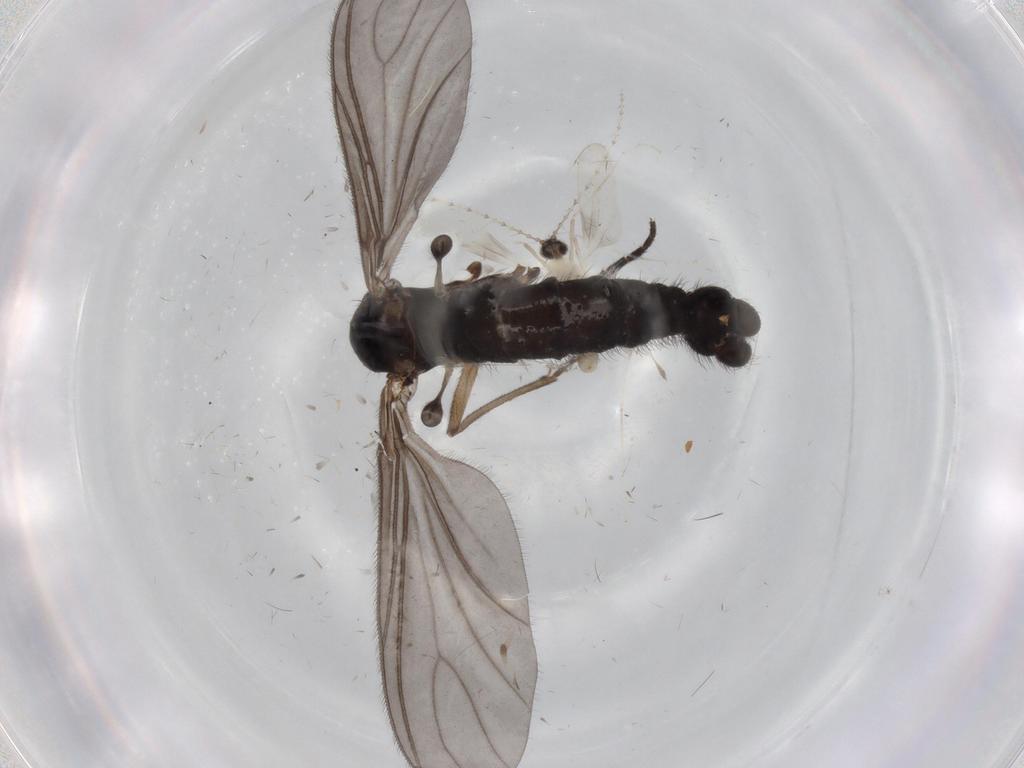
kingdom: Animalia
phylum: Arthropoda
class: Insecta
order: Diptera
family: Sciaridae
